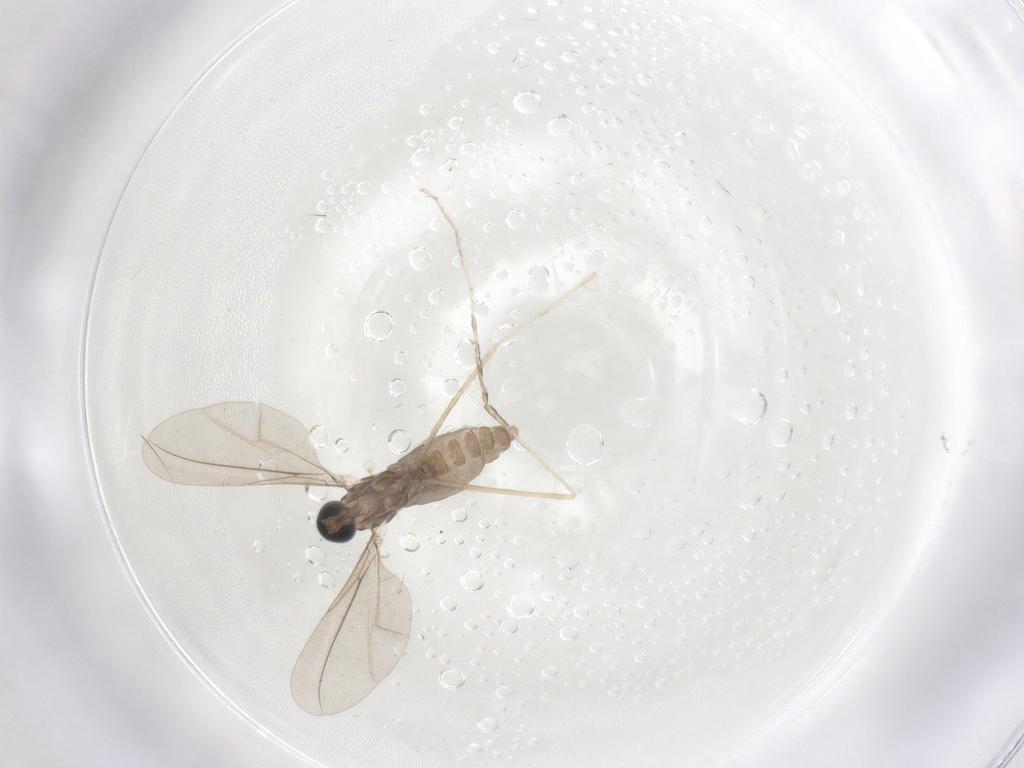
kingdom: Animalia
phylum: Arthropoda
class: Insecta
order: Diptera
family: Cecidomyiidae
